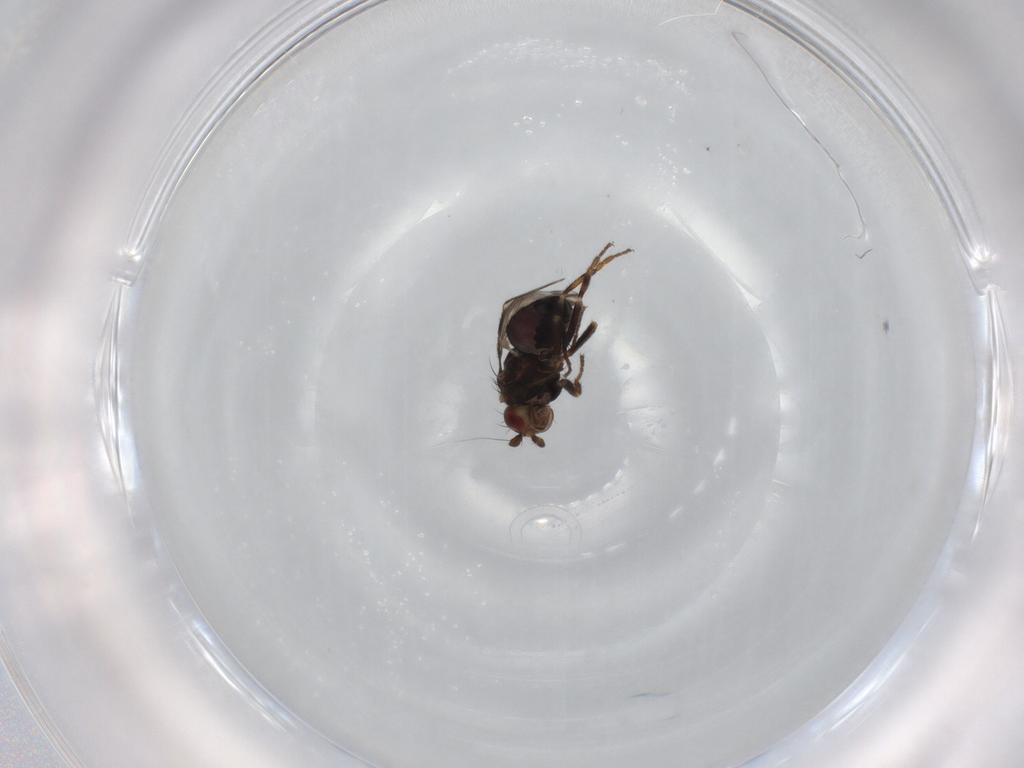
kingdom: Animalia
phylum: Arthropoda
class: Insecta
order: Diptera
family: Sphaeroceridae
